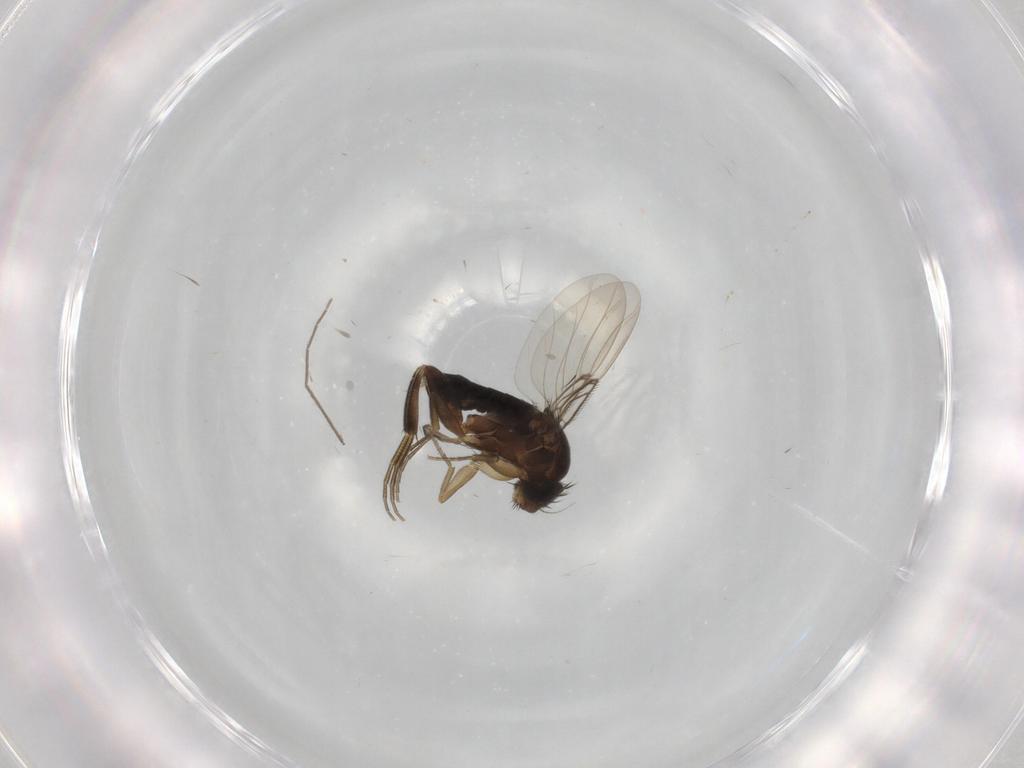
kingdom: Animalia
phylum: Arthropoda
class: Insecta
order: Diptera
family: Phoridae
